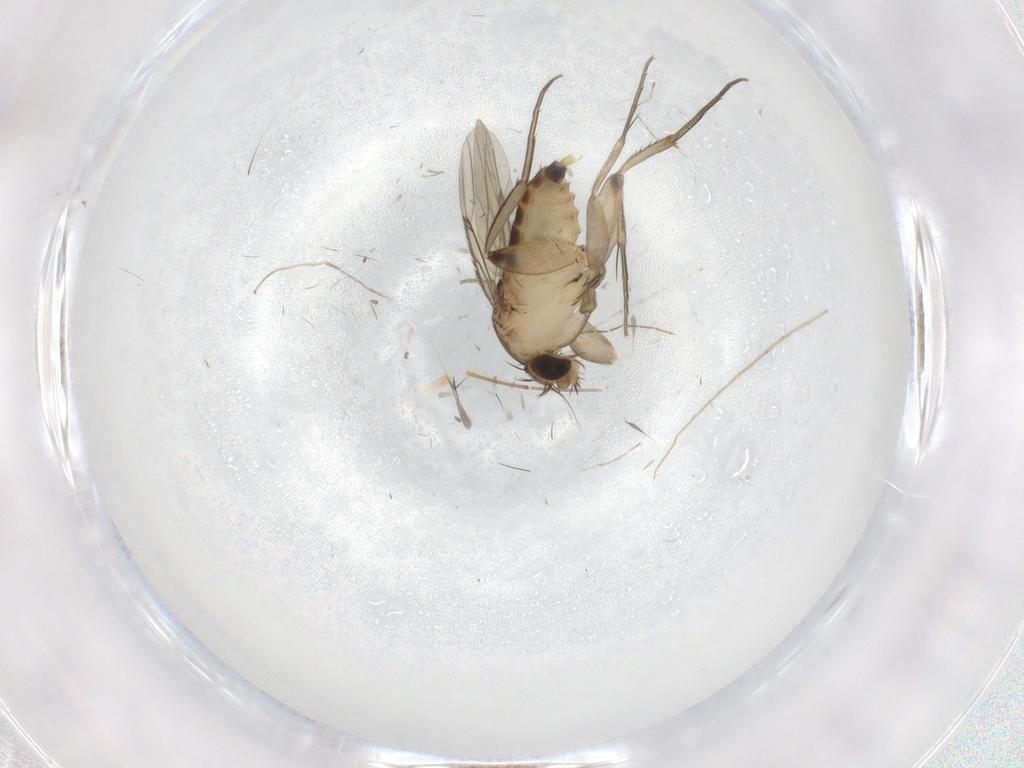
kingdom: Animalia
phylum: Arthropoda
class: Insecta
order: Diptera
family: Cecidomyiidae
